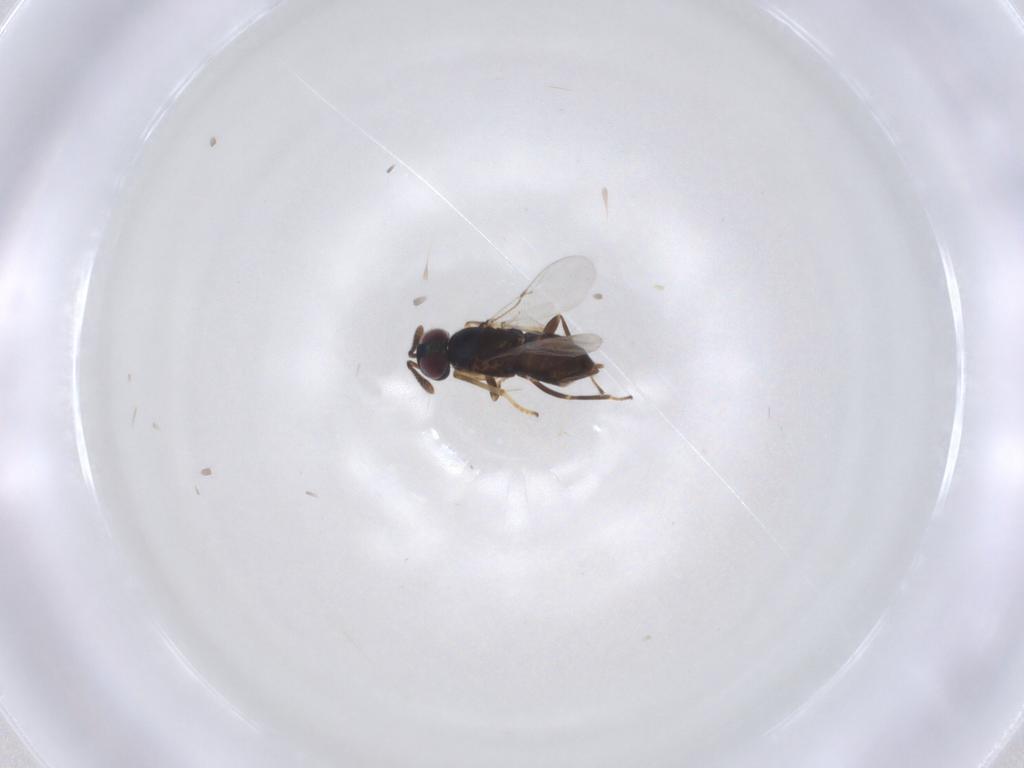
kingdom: Animalia
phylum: Arthropoda
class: Insecta
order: Hymenoptera
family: Encyrtidae
